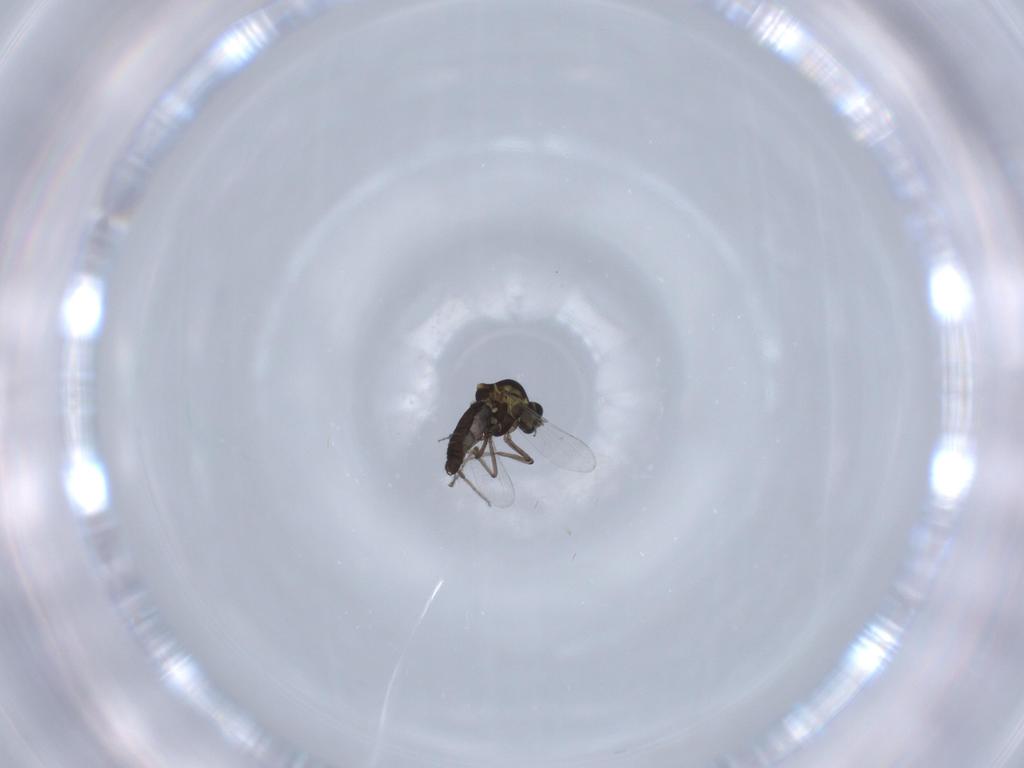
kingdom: Animalia
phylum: Arthropoda
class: Insecta
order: Diptera
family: Ceratopogonidae
